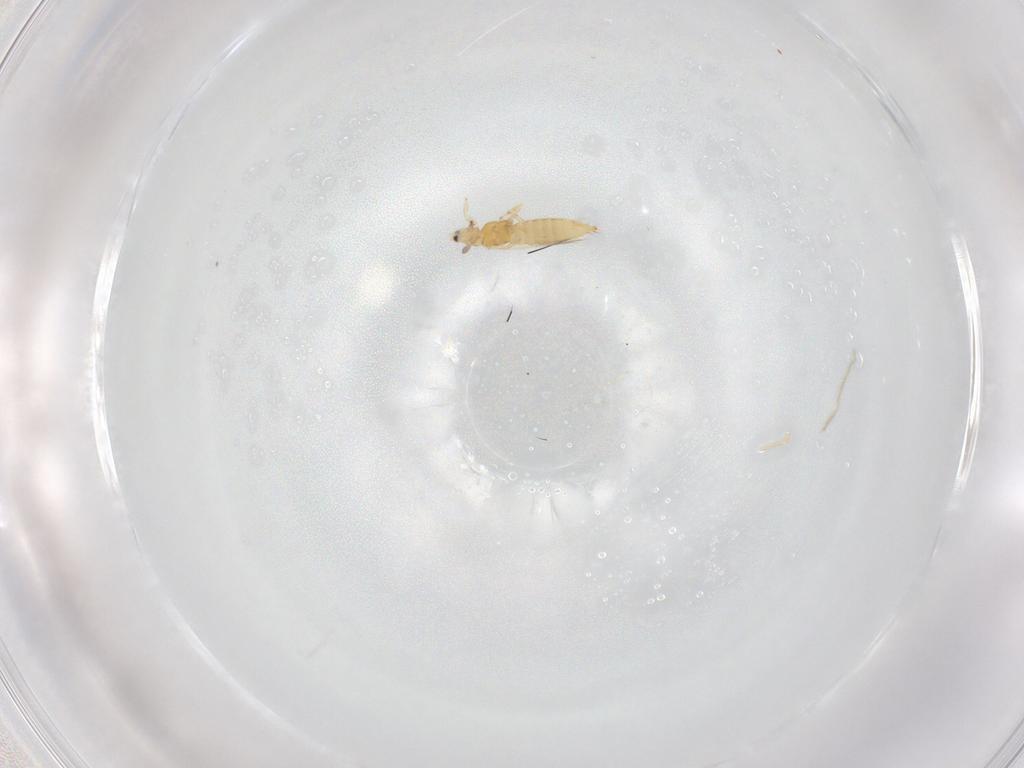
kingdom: Animalia
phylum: Arthropoda
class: Insecta
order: Thysanoptera
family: Thripidae
